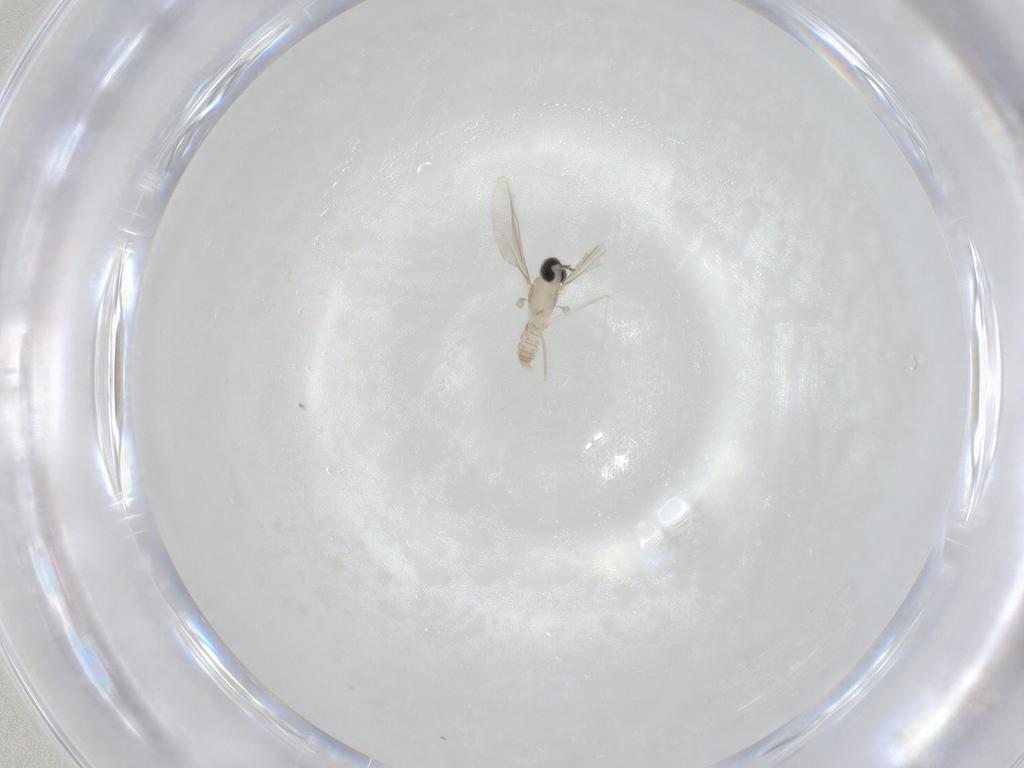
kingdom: Animalia
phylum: Arthropoda
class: Insecta
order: Diptera
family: Cecidomyiidae
